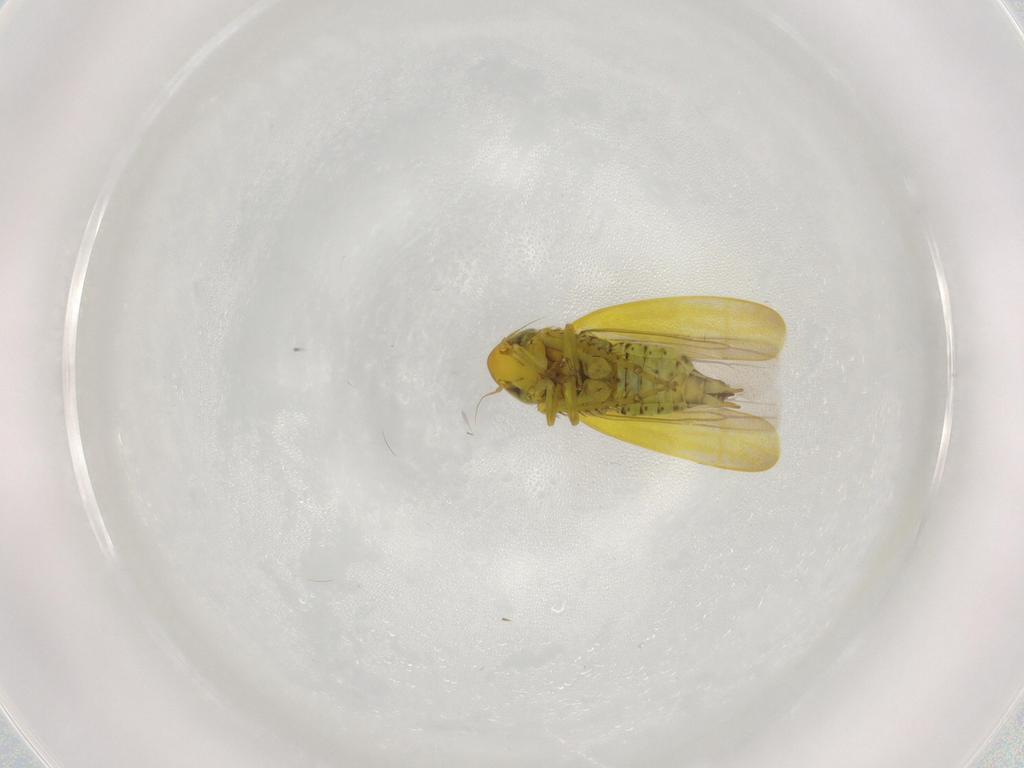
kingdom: Animalia
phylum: Arthropoda
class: Insecta
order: Hemiptera
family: Cicadellidae
